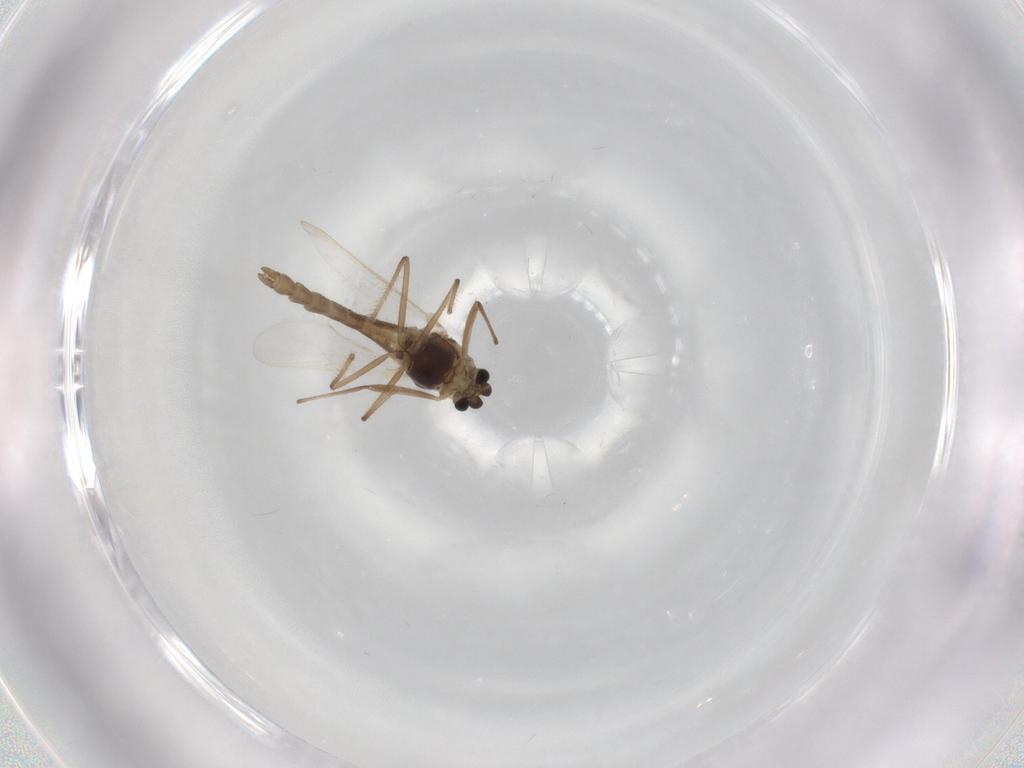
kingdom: Animalia
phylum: Arthropoda
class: Insecta
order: Diptera
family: Chironomidae
